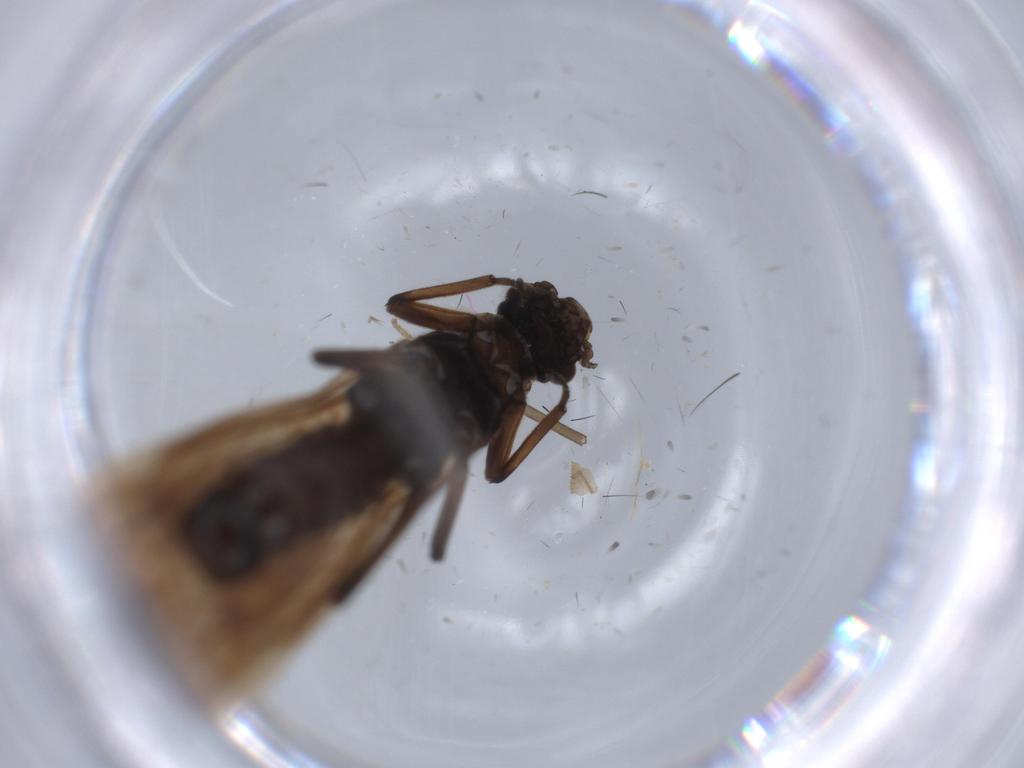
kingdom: Animalia
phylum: Arthropoda
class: Insecta
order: Plecoptera
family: Leuctridae
